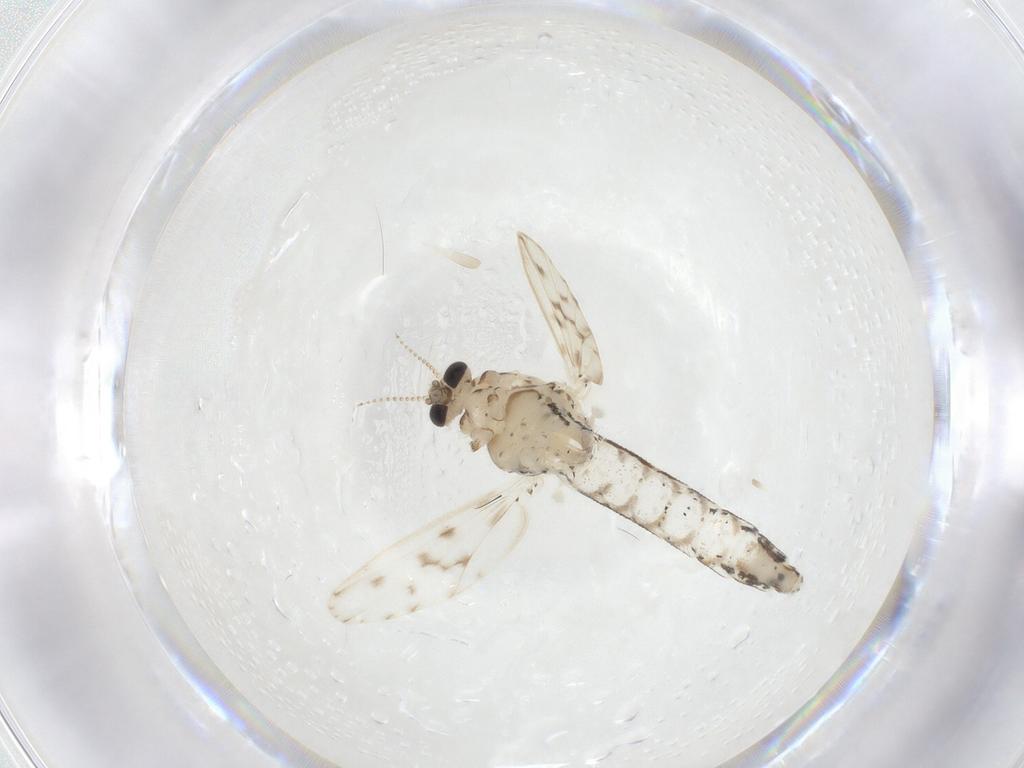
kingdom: Animalia
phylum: Arthropoda
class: Insecta
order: Diptera
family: Chaoboridae
